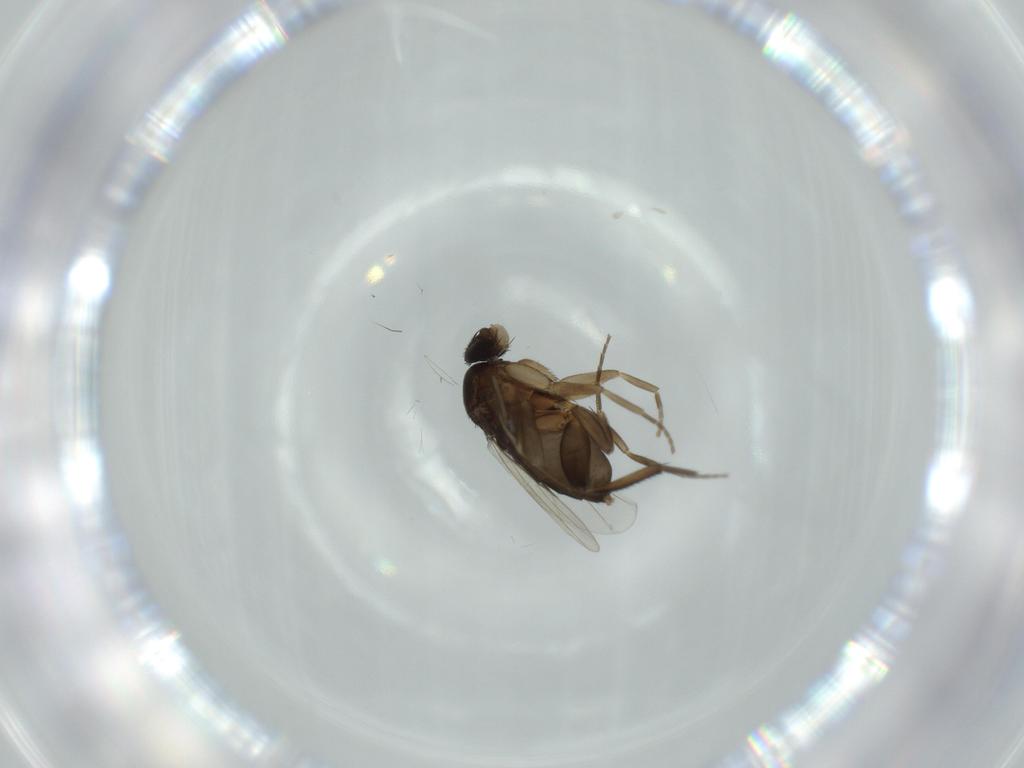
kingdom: Animalia
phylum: Arthropoda
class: Insecta
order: Diptera
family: Phoridae
